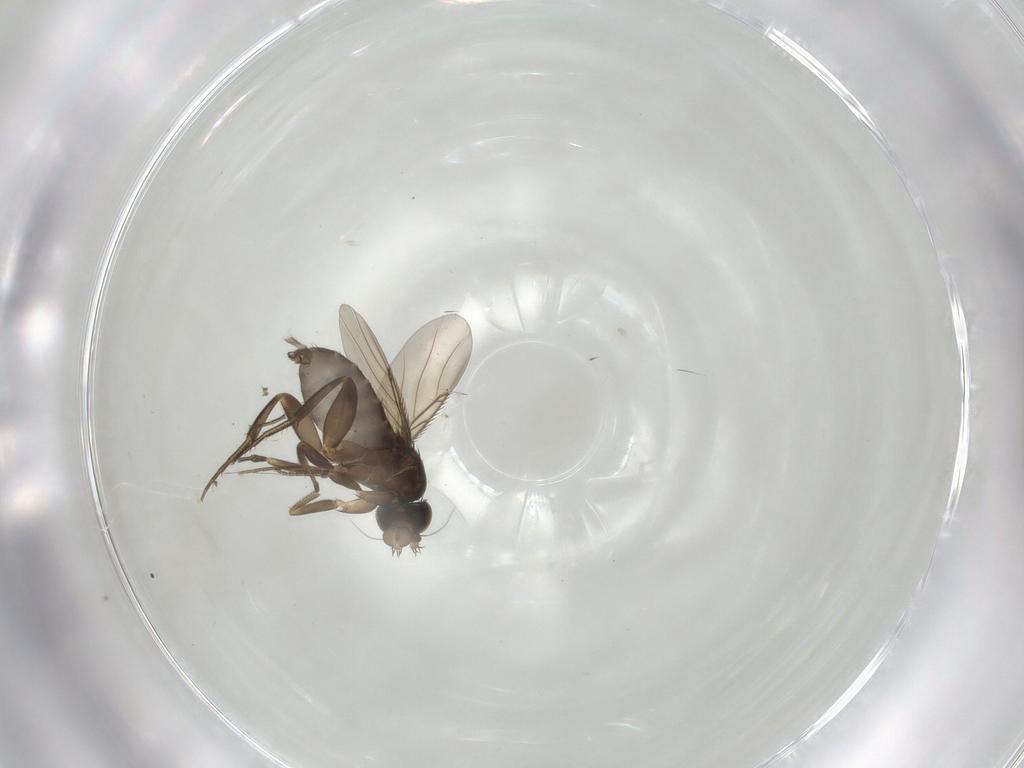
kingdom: Animalia
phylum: Arthropoda
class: Insecta
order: Diptera
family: Phoridae
